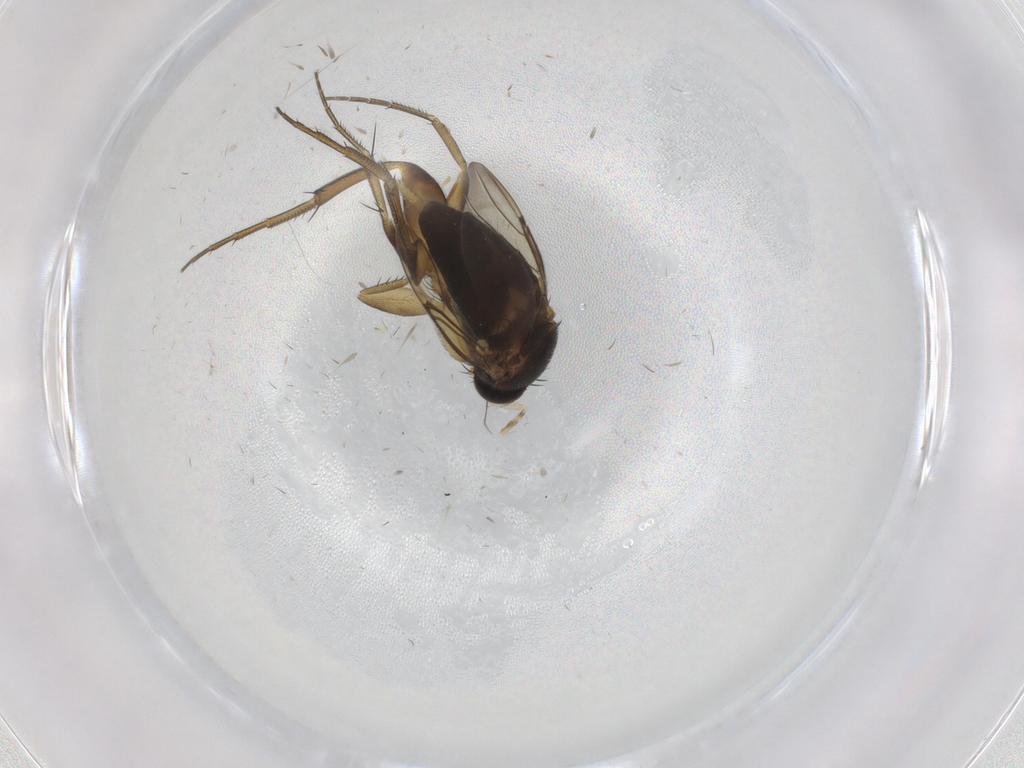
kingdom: Animalia
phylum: Arthropoda
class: Insecta
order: Diptera
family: Phoridae
